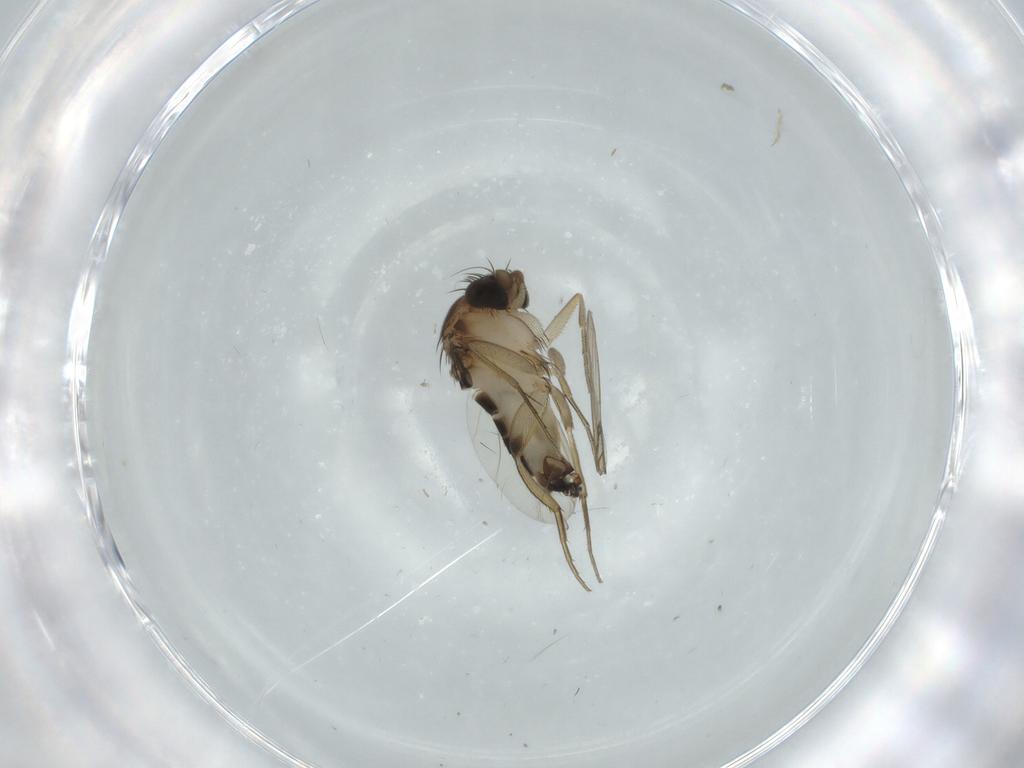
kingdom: Animalia
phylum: Arthropoda
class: Insecta
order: Diptera
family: Phoridae
